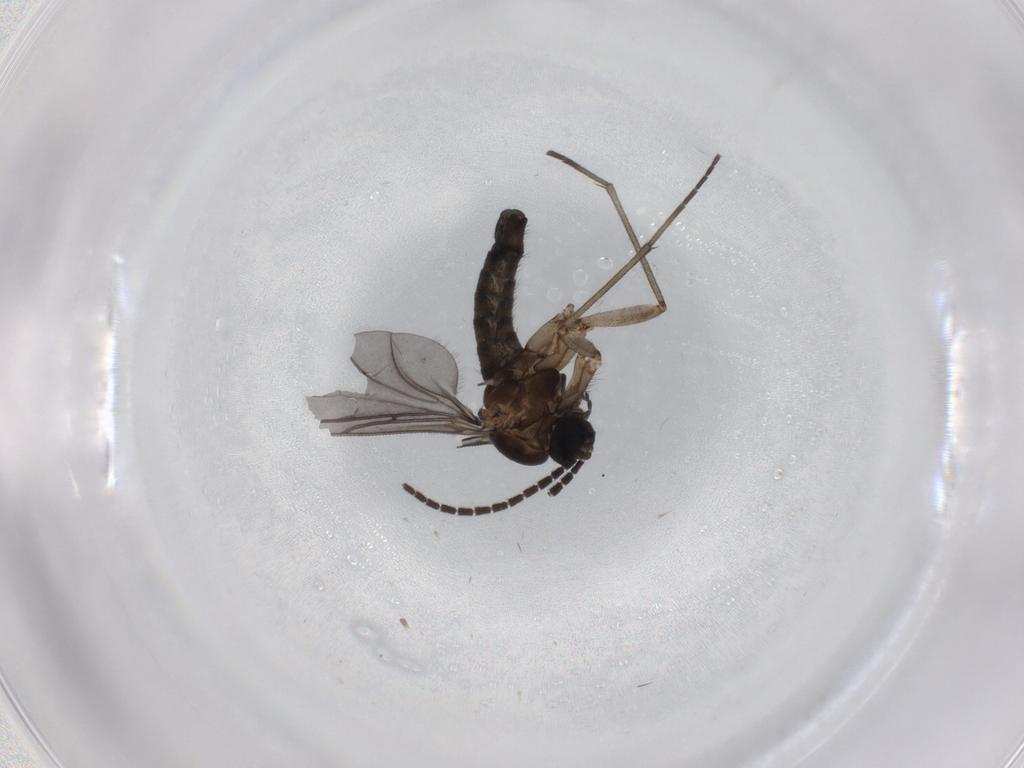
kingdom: Animalia
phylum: Arthropoda
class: Insecta
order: Diptera
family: Sciaridae
